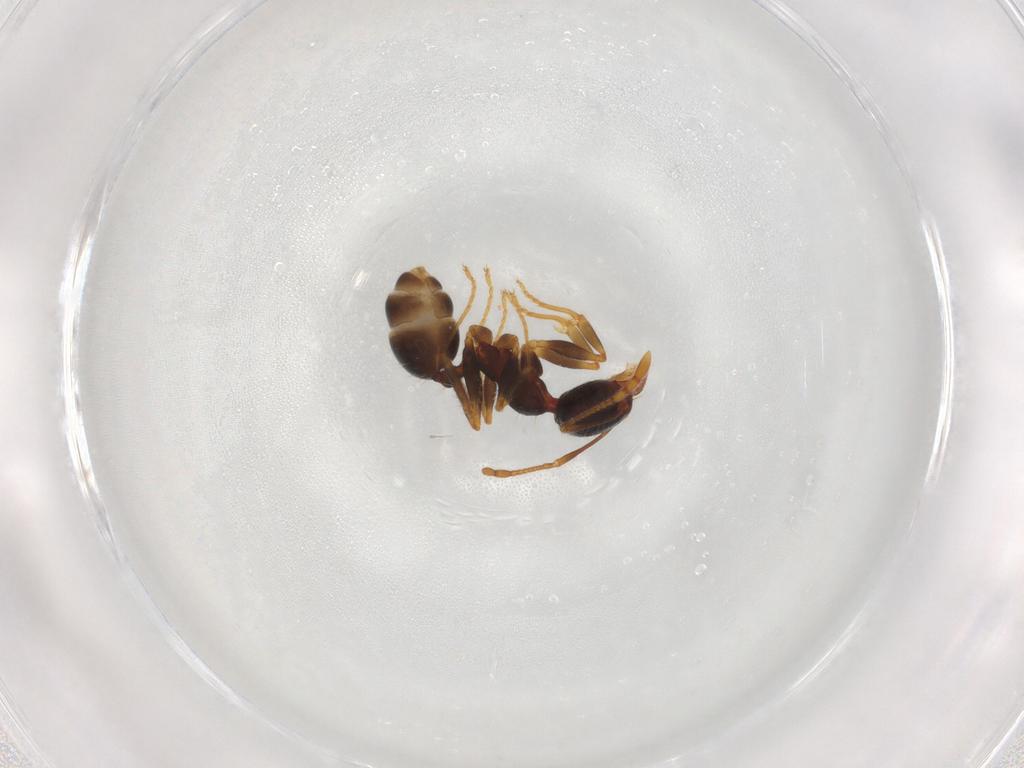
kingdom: Animalia
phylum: Arthropoda
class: Insecta
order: Hymenoptera
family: Formicidae
